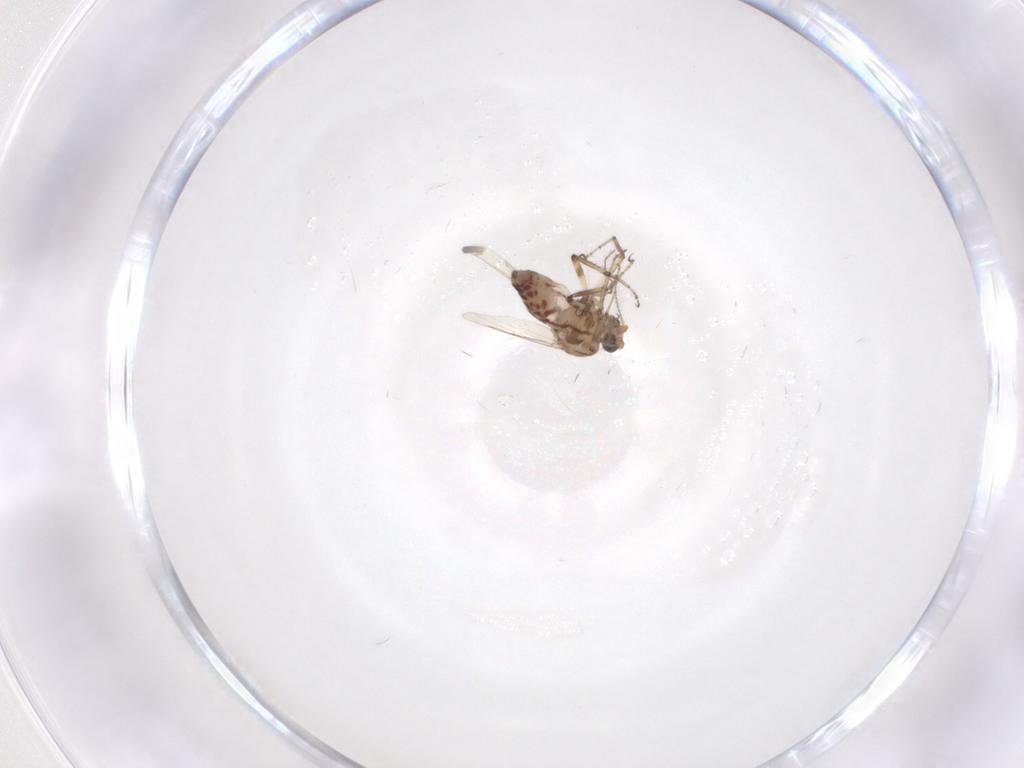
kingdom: Animalia
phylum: Arthropoda
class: Insecta
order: Diptera
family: Ceratopogonidae
